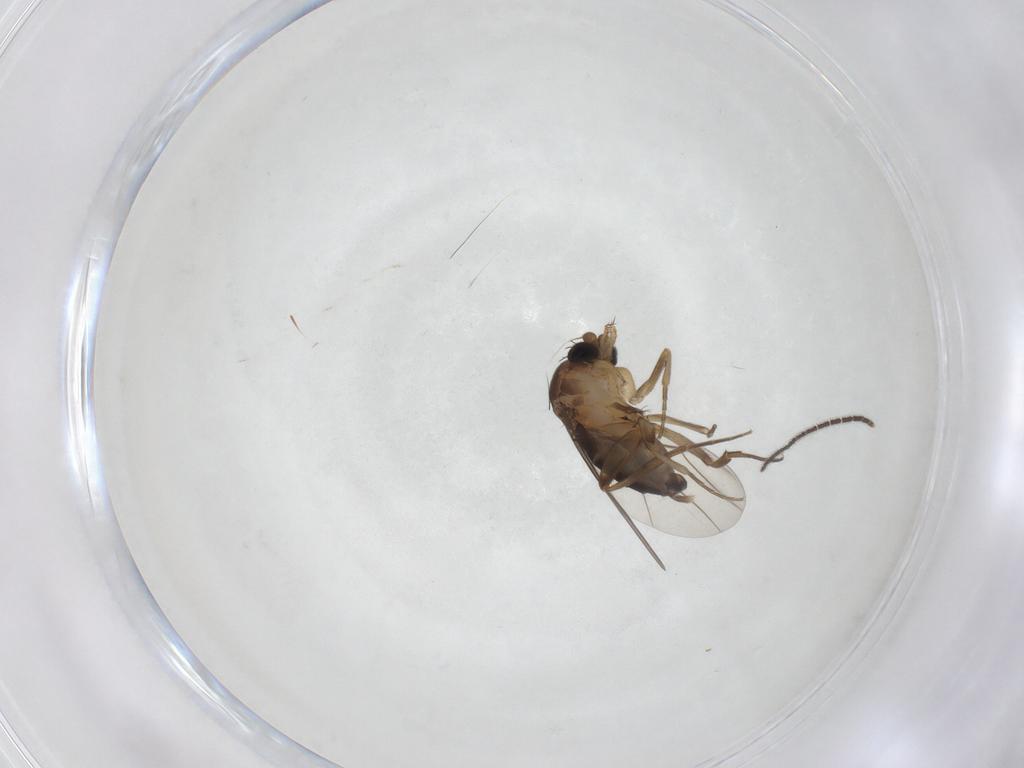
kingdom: Animalia
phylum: Arthropoda
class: Insecta
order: Diptera
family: Phoridae
